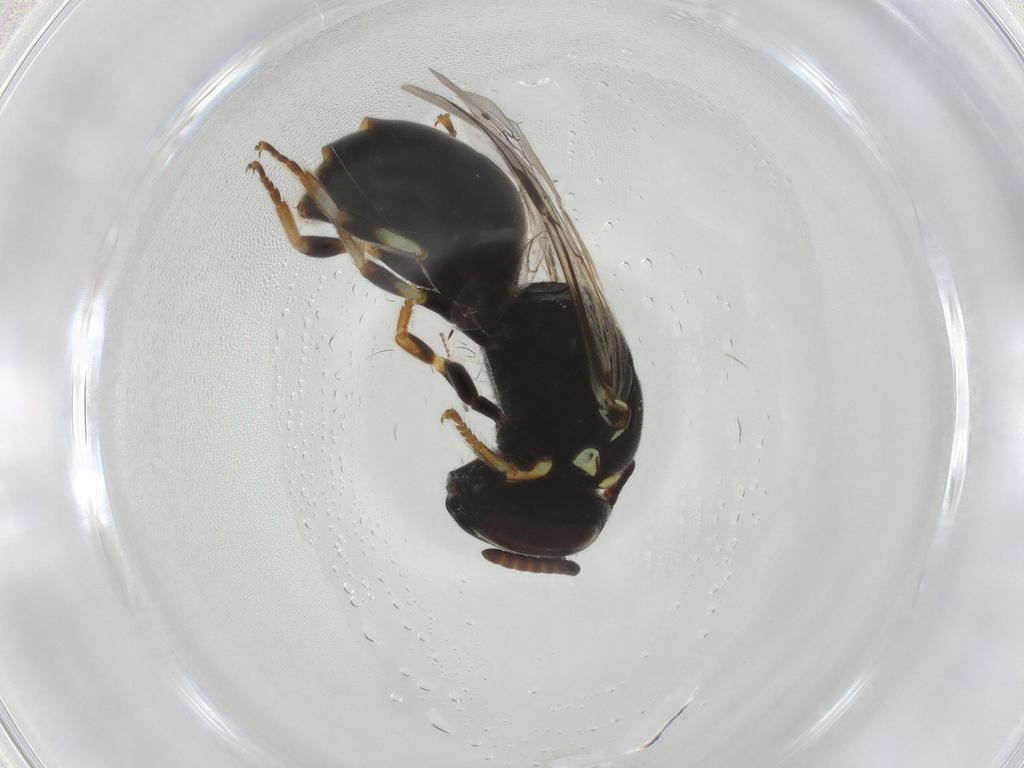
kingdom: Animalia
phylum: Arthropoda
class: Insecta
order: Hymenoptera
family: Colletidae
